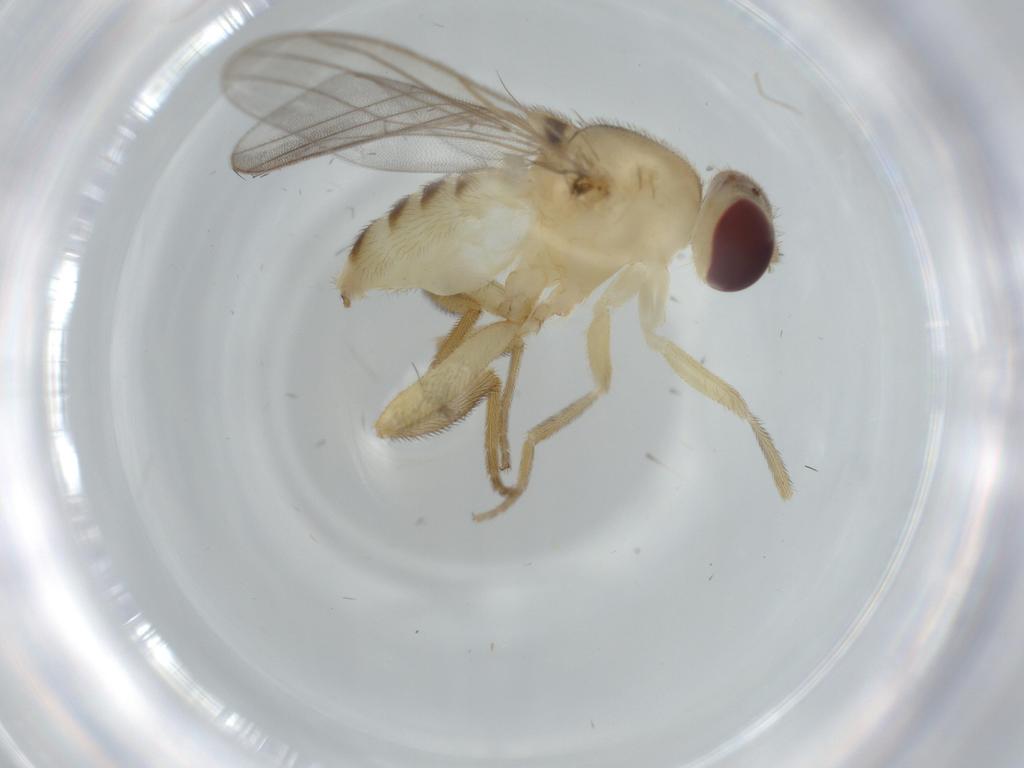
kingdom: Animalia
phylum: Arthropoda
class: Insecta
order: Diptera
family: Chloropidae
